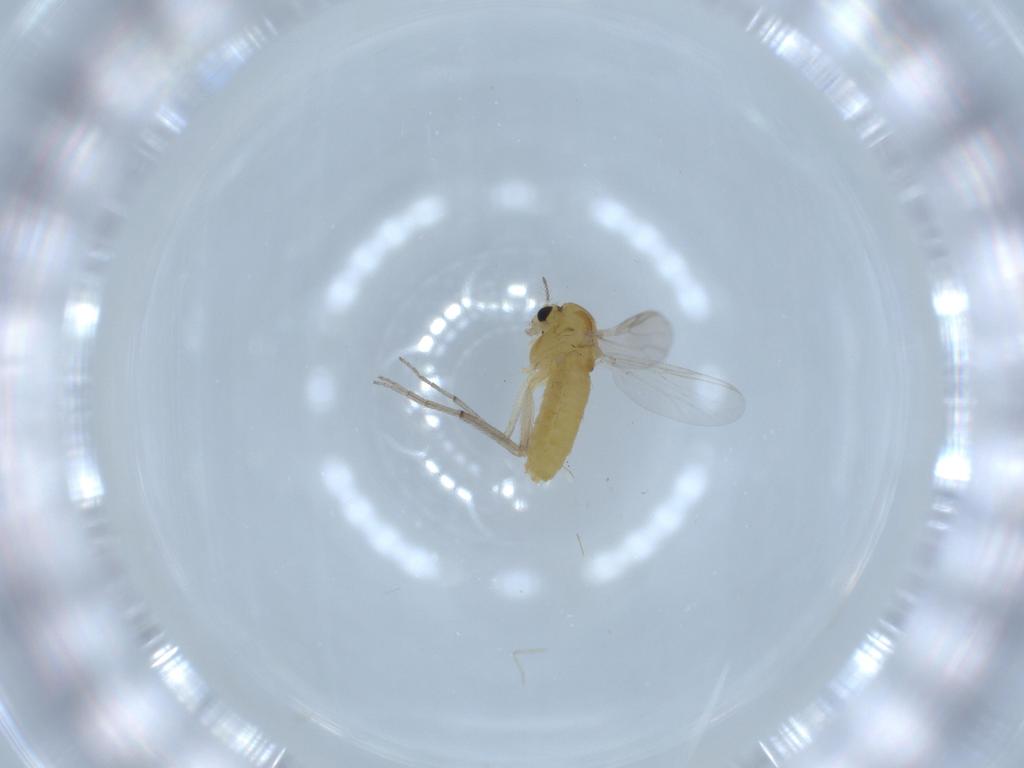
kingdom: Animalia
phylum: Arthropoda
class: Insecta
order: Diptera
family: Chironomidae
